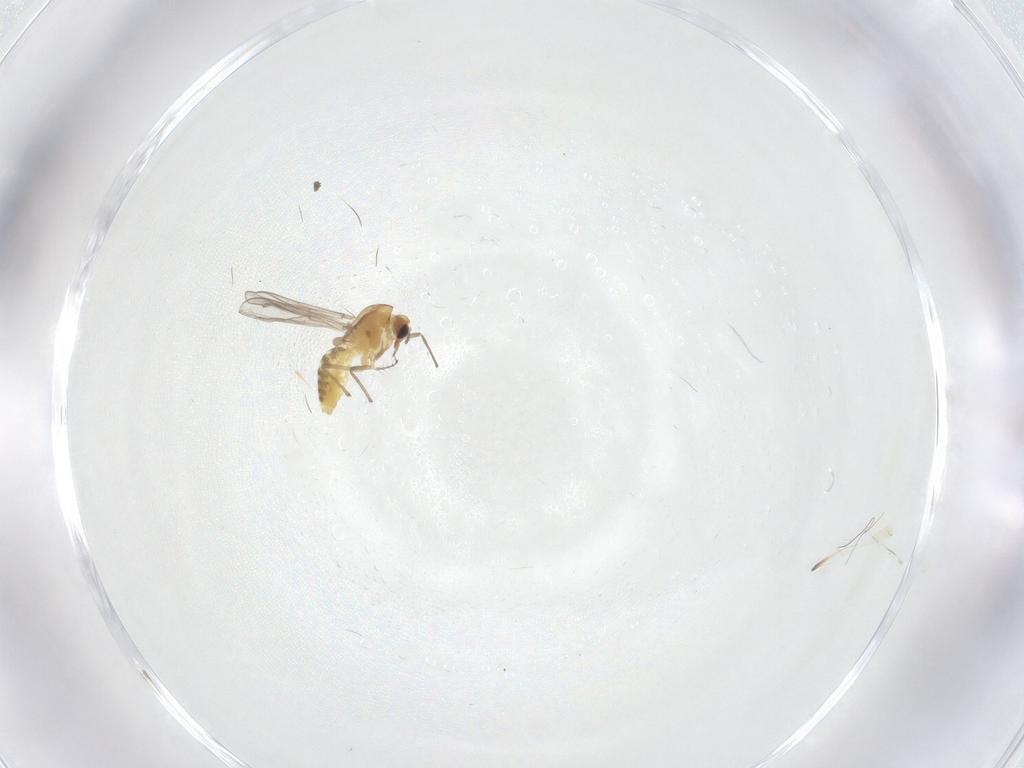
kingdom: Animalia
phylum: Arthropoda
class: Insecta
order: Diptera
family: Chironomidae
